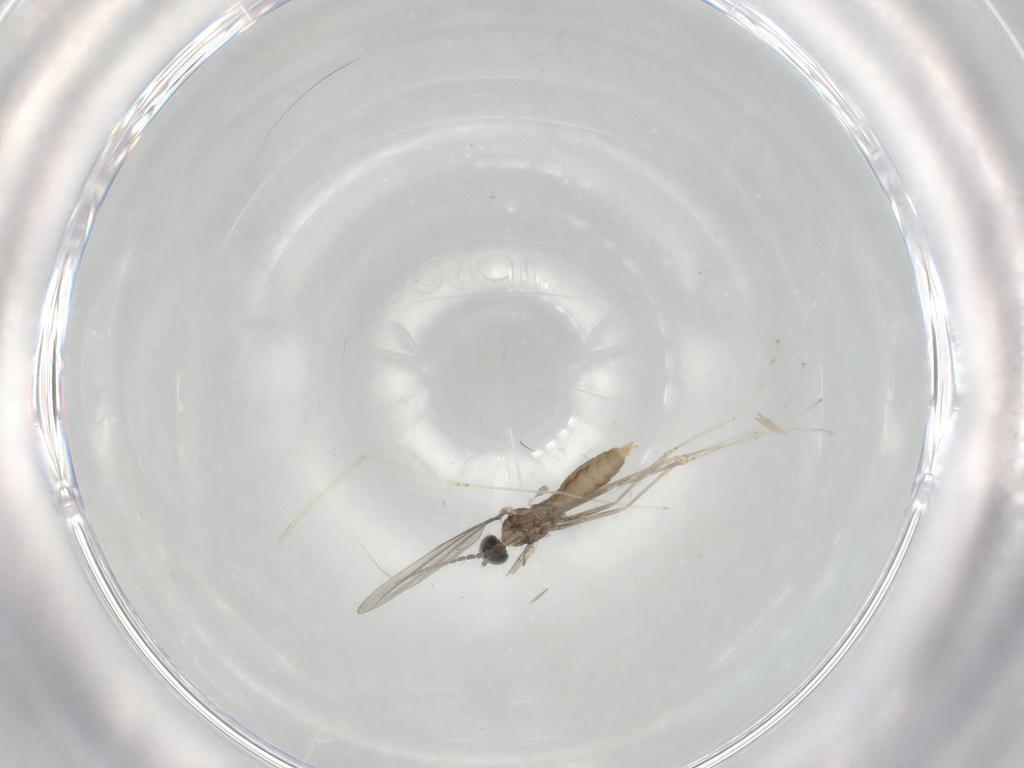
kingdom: Animalia
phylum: Arthropoda
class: Insecta
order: Diptera
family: Cecidomyiidae
